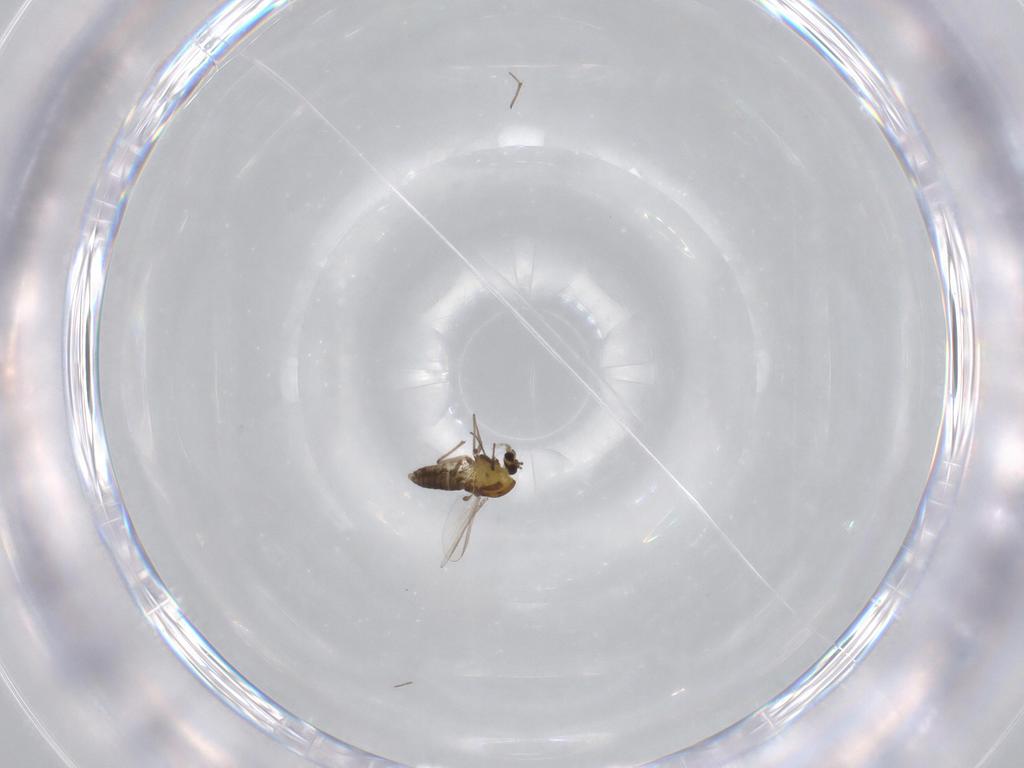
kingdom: Animalia
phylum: Arthropoda
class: Insecta
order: Diptera
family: Chironomidae
